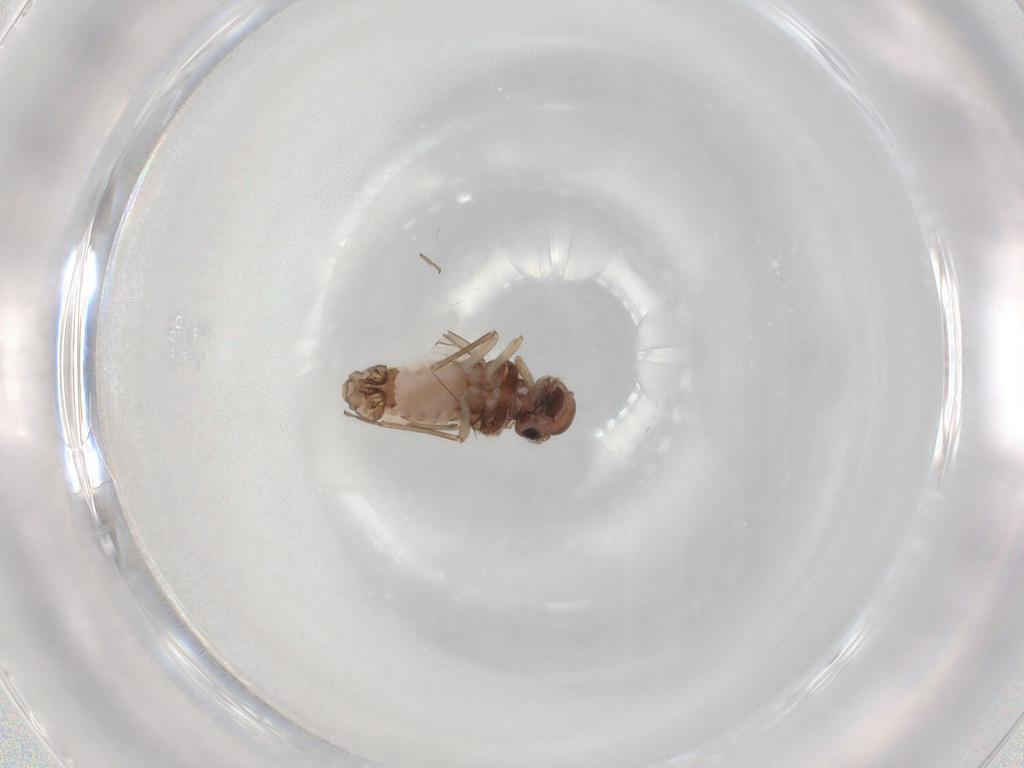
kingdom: Animalia
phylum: Arthropoda
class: Insecta
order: Psocodea
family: Peripsocidae
